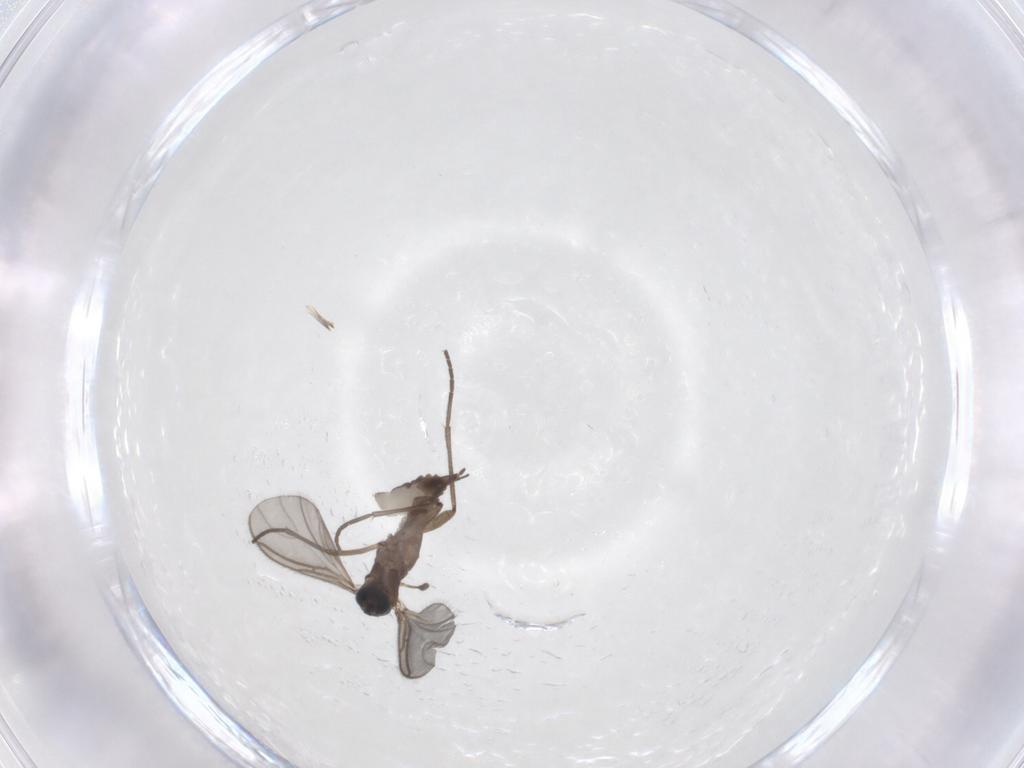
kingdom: Animalia
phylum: Arthropoda
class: Insecta
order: Diptera
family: Sciaridae
